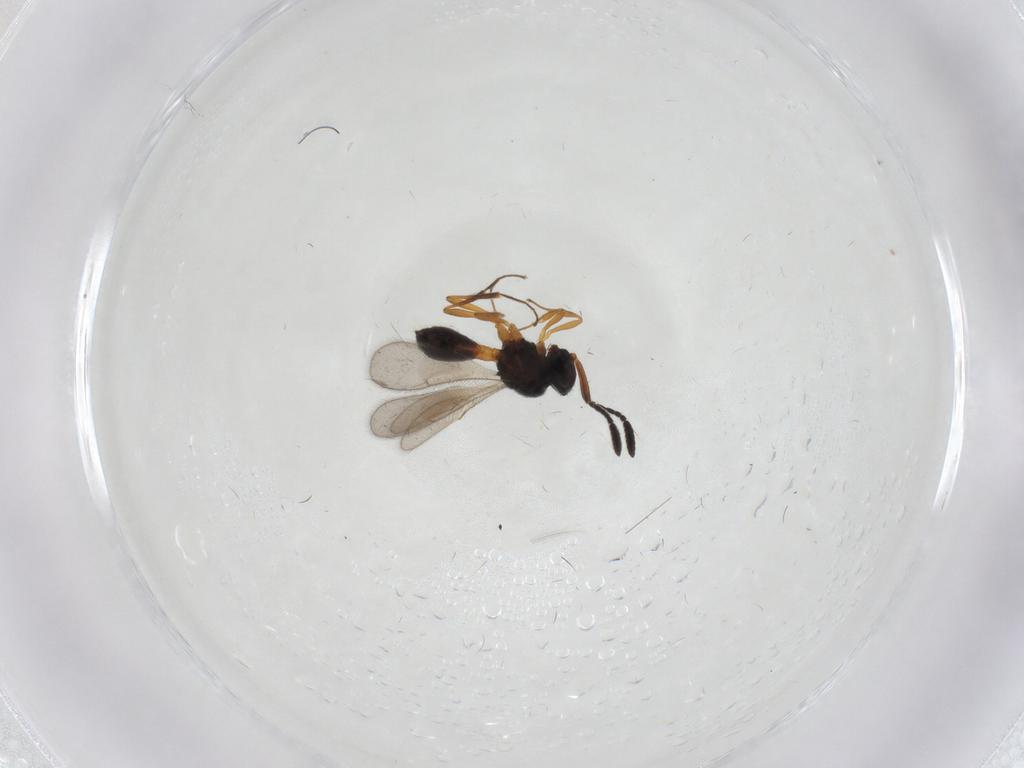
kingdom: Animalia
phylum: Arthropoda
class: Insecta
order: Hymenoptera
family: Scelionidae
